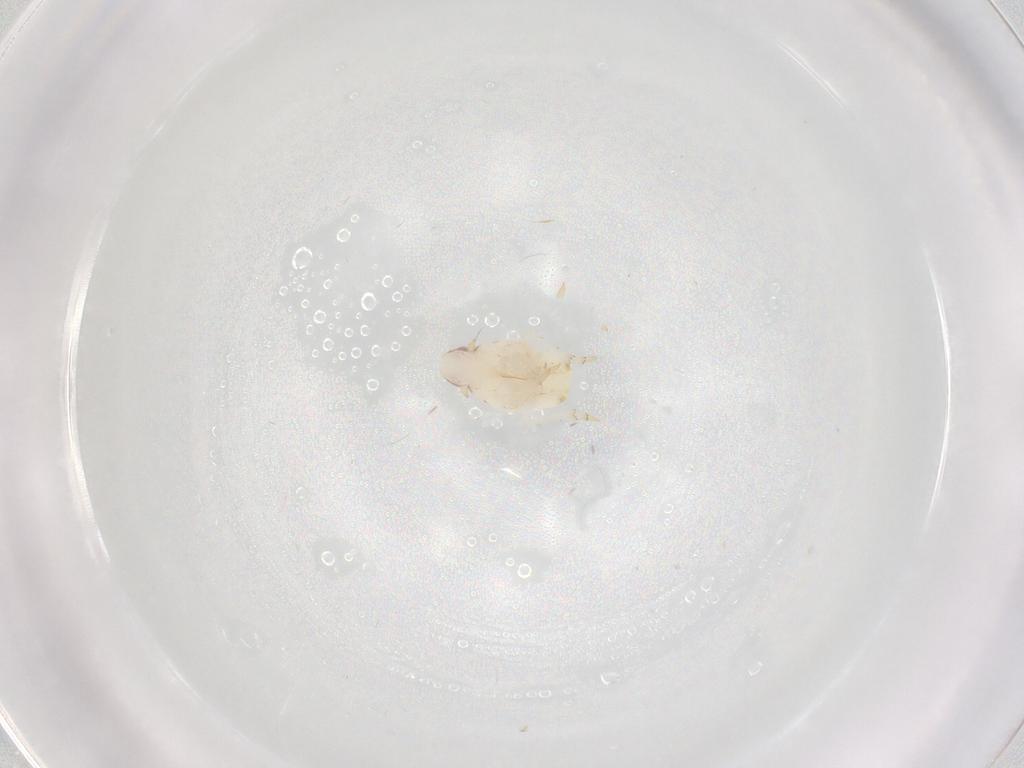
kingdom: Animalia
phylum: Arthropoda
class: Insecta
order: Hemiptera
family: Flatidae
